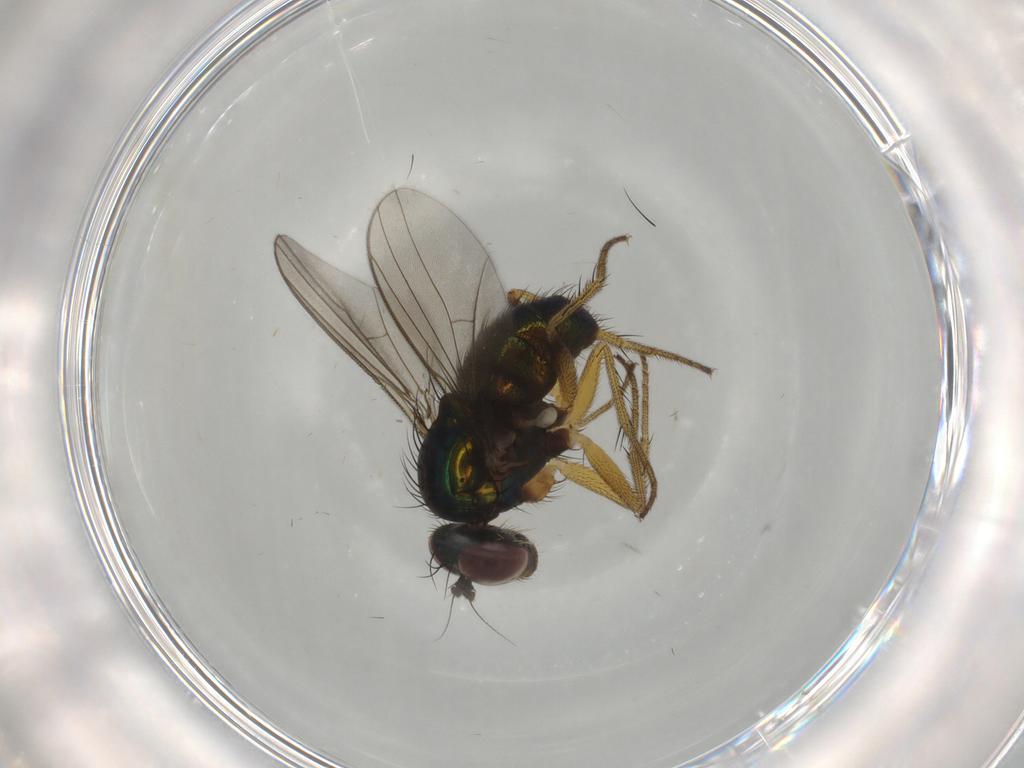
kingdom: Animalia
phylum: Arthropoda
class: Insecta
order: Diptera
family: Dolichopodidae
